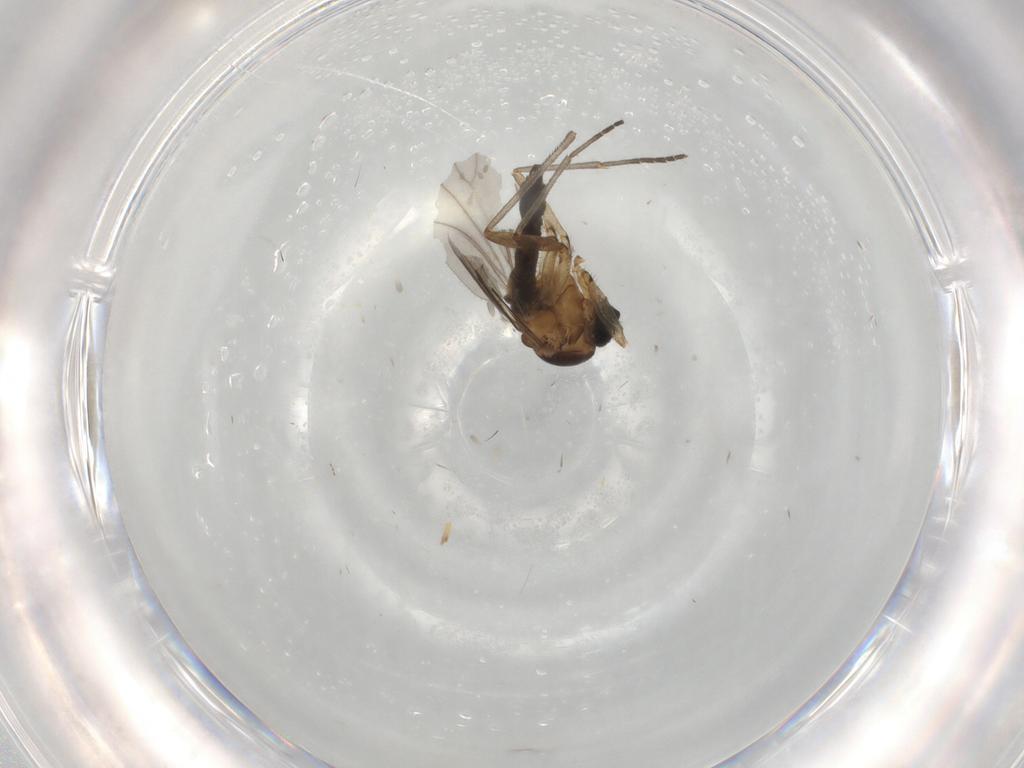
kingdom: Animalia
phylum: Arthropoda
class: Insecta
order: Diptera
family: Sciaridae
